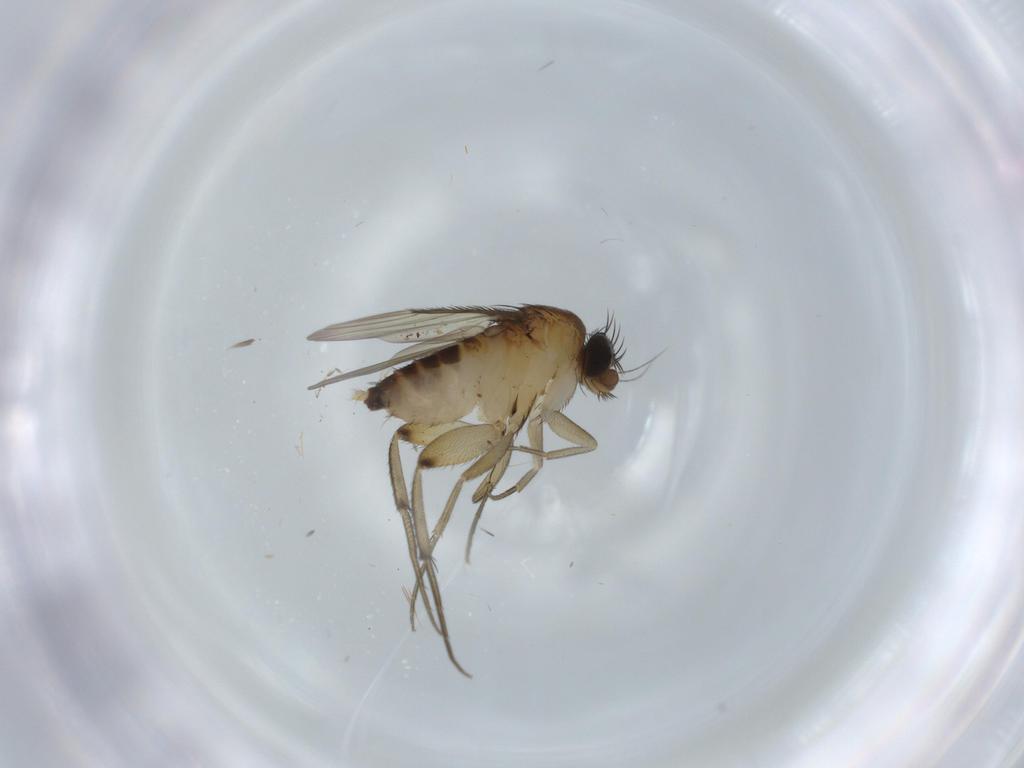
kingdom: Animalia
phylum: Arthropoda
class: Insecta
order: Diptera
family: Phoridae
